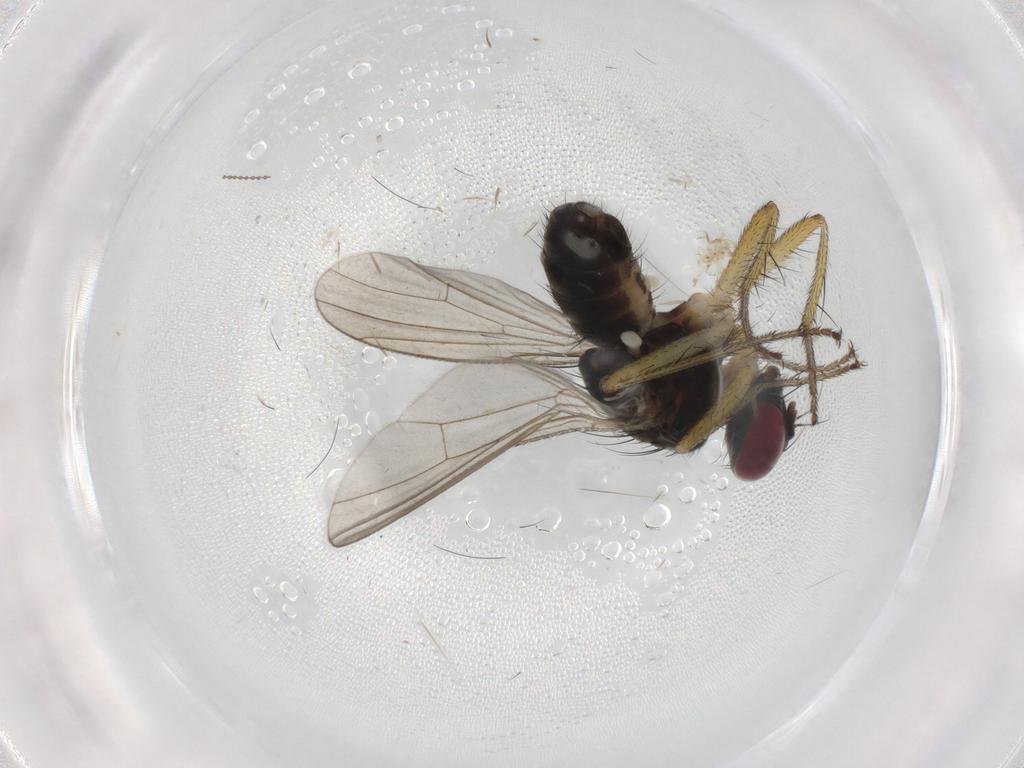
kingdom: Animalia
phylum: Arthropoda
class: Insecta
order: Diptera
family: Muscidae
